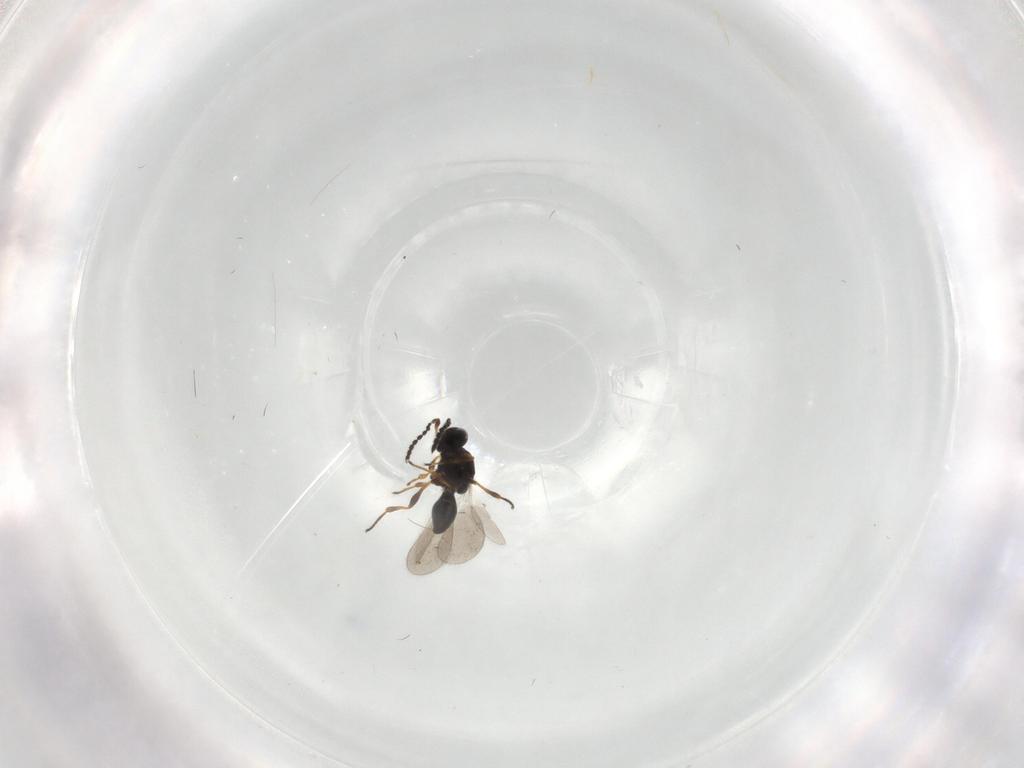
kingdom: Animalia
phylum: Arthropoda
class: Insecta
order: Hymenoptera
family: Platygastridae
